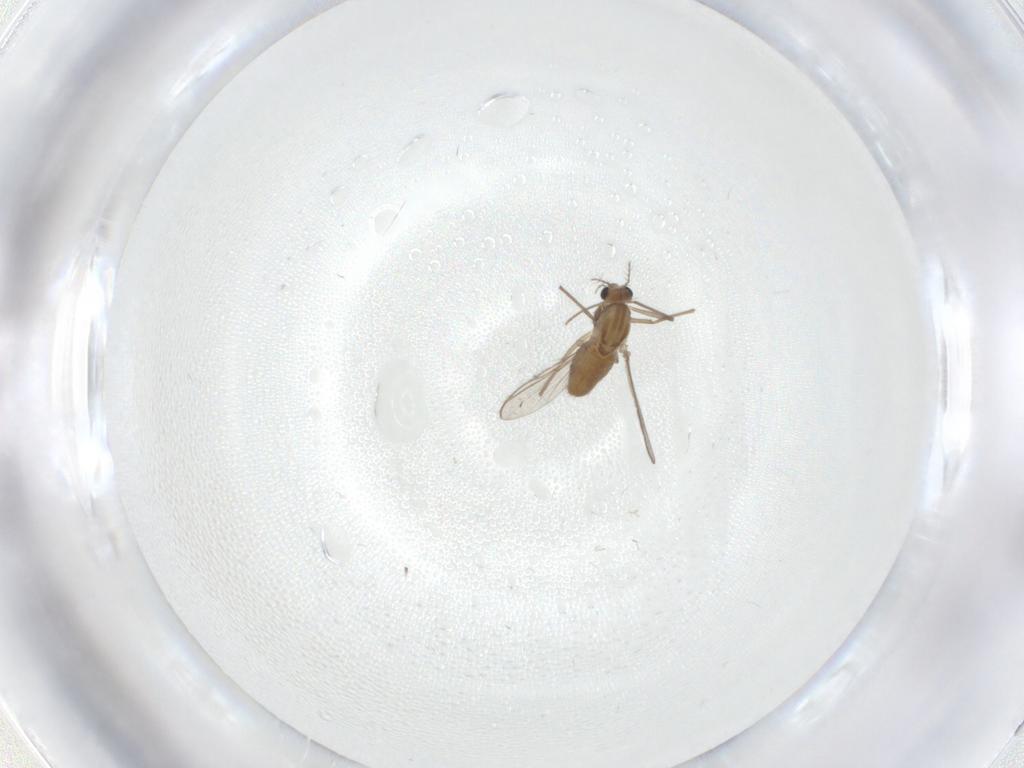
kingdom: Animalia
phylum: Arthropoda
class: Insecta
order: Diptera
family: Chironomidae
